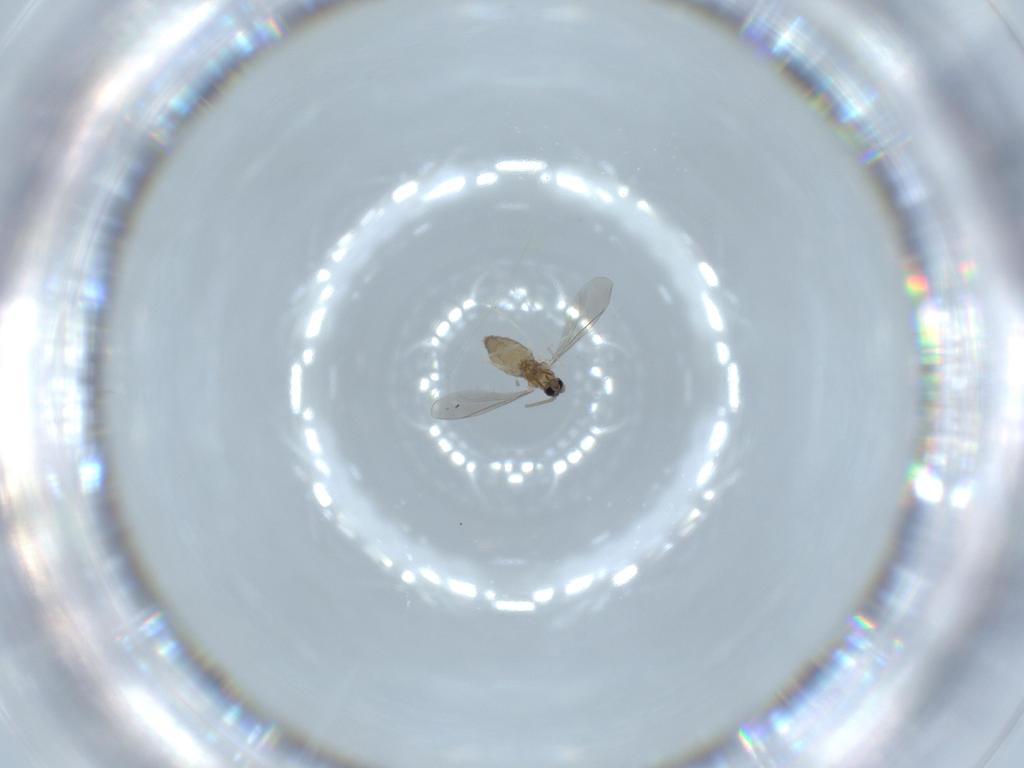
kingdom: Animalia
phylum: Arthropoda
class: Insecta
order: Diptera
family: Cecidomyiidae
